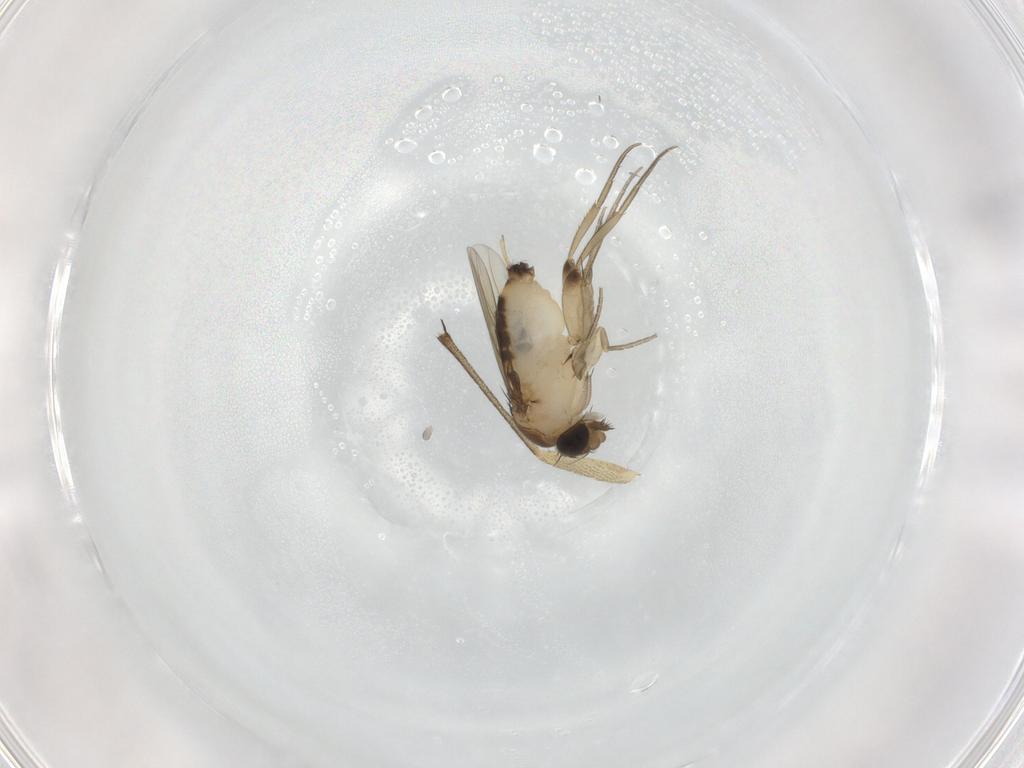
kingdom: Animalia
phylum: Arthropoda
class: Insecta
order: Diptera
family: Phoridae
